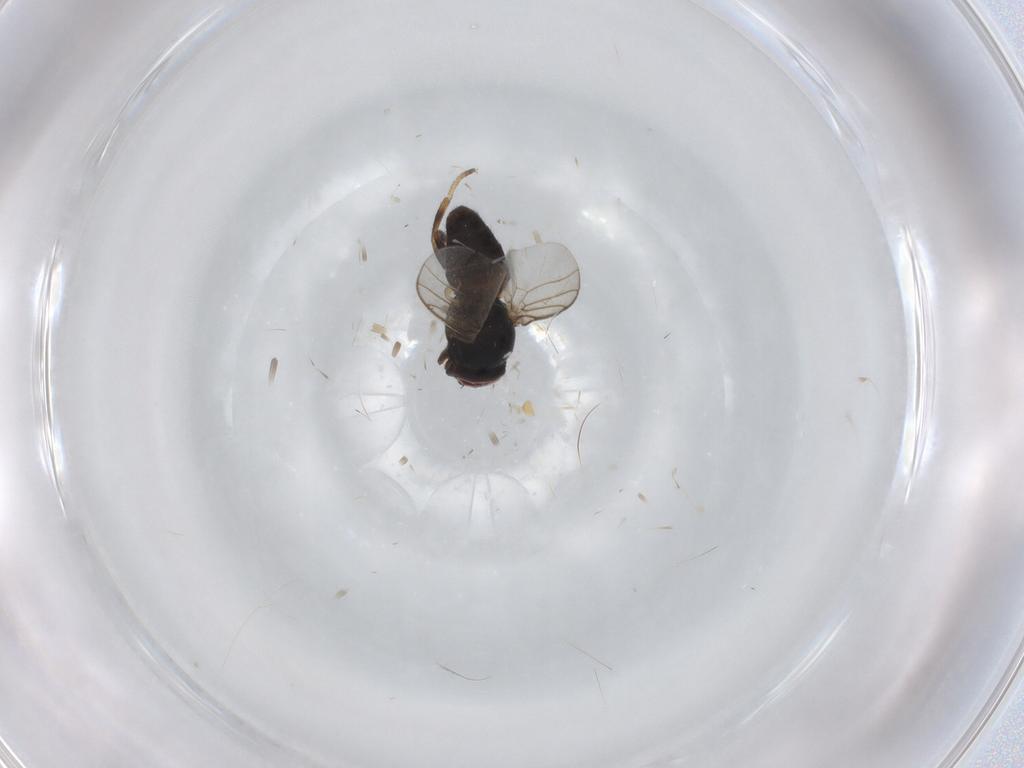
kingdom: Animalia
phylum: Arthropoda
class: Insecta
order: Diptera
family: Chloropidae
